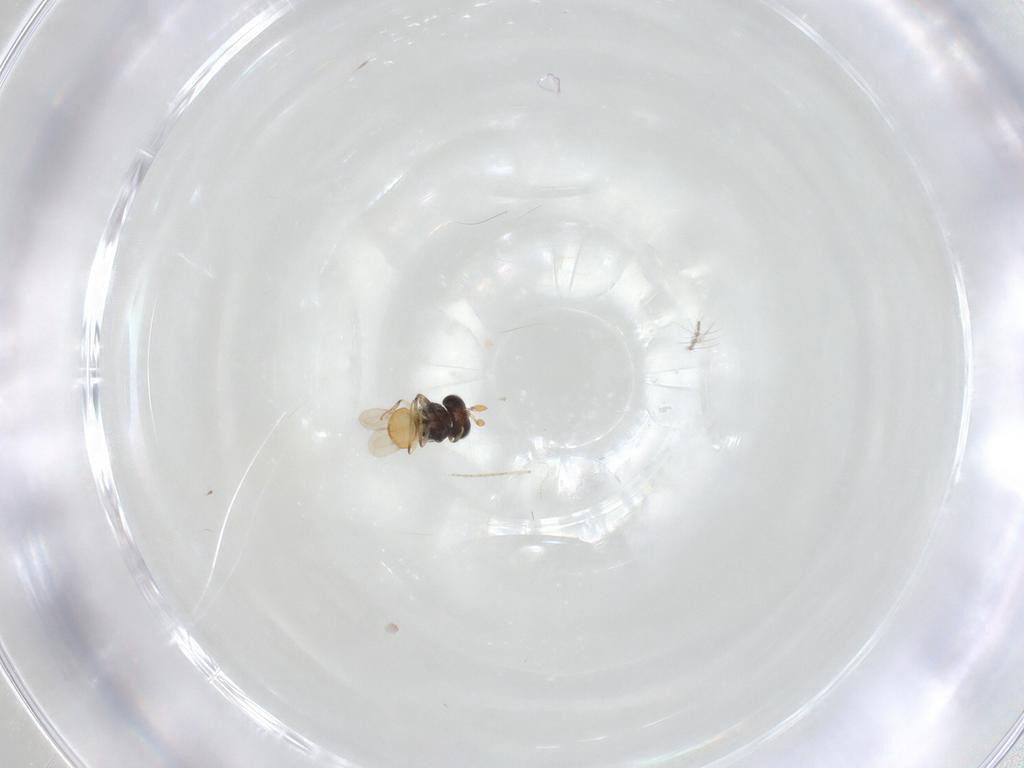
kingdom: Animalia
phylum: Arthropoda
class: Insecta
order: Hymenoptera
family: Scelionidae
